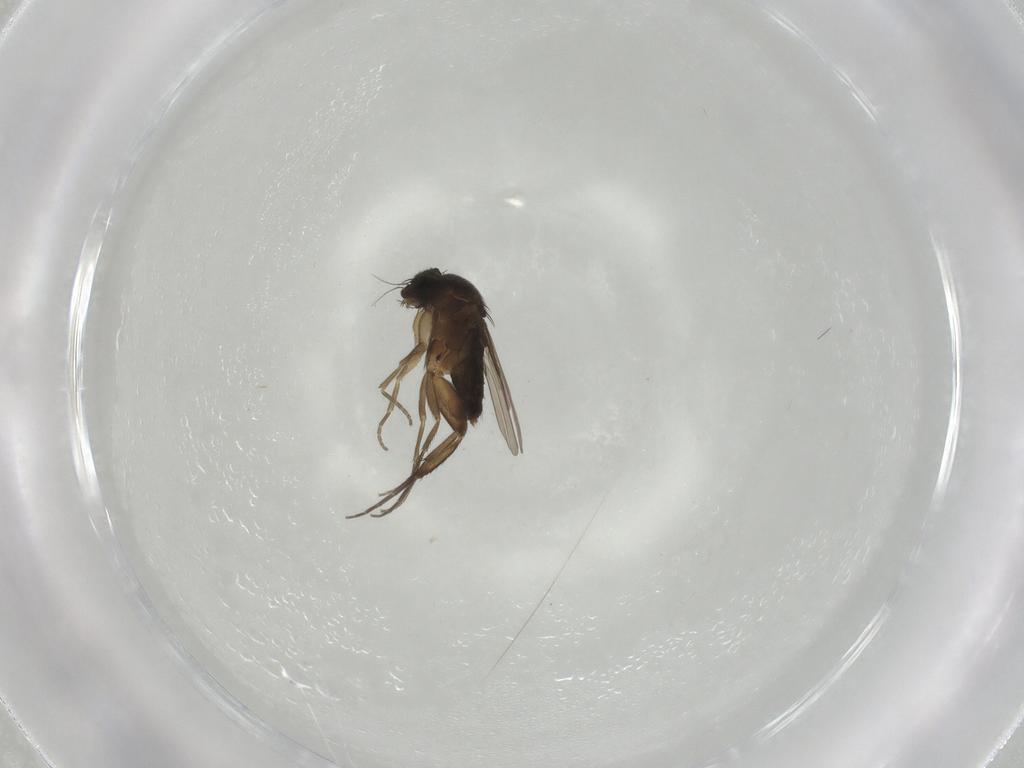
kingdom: Animalia
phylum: Arthropoda
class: Insecta
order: Diptera
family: Phoridae
